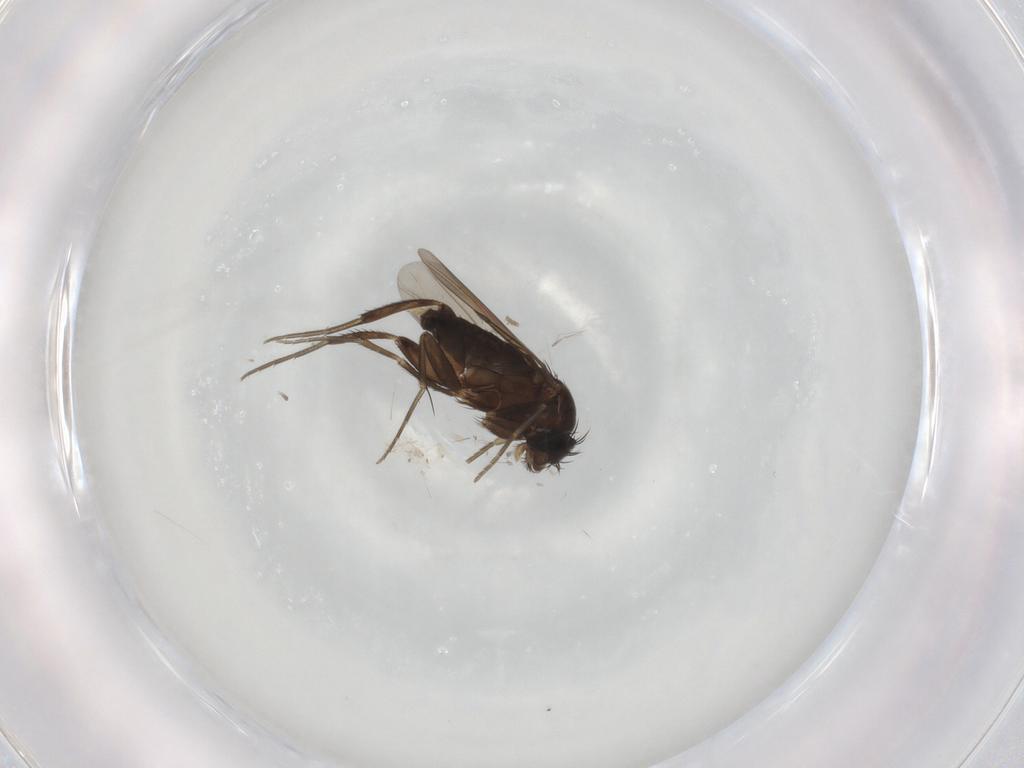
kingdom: Animalia
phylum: Arthropoda
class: Insecta
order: Diptera
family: Phoridae
